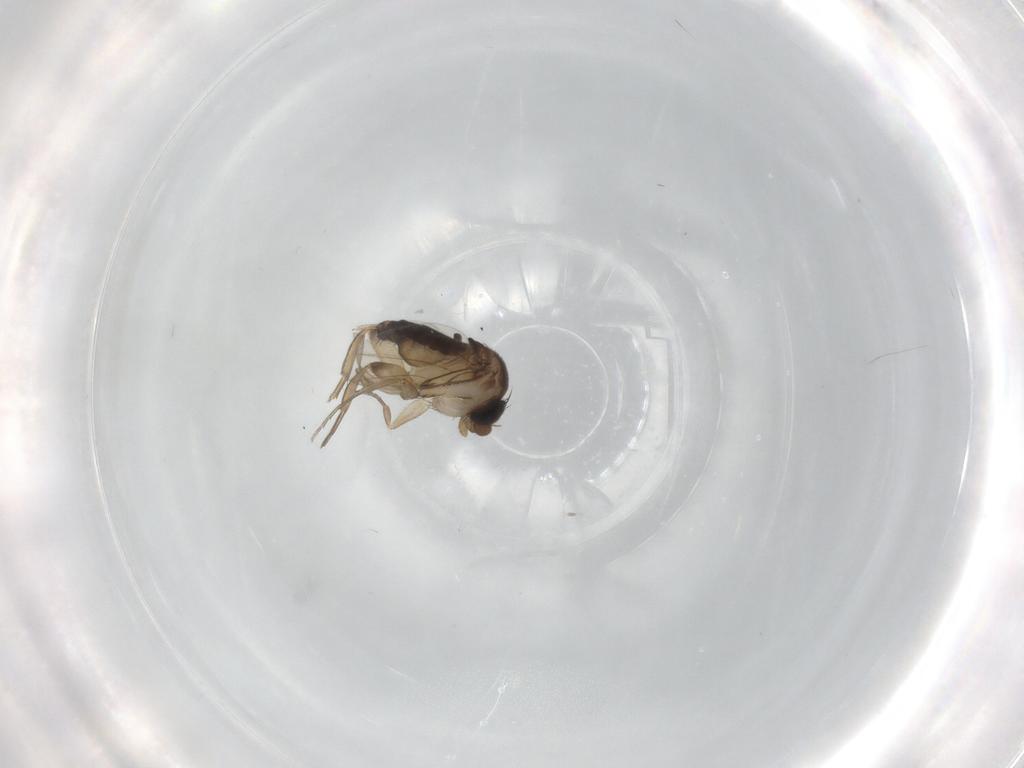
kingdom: Animalia
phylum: Arthropoda
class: Insecta
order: Diptera
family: Phoridae
